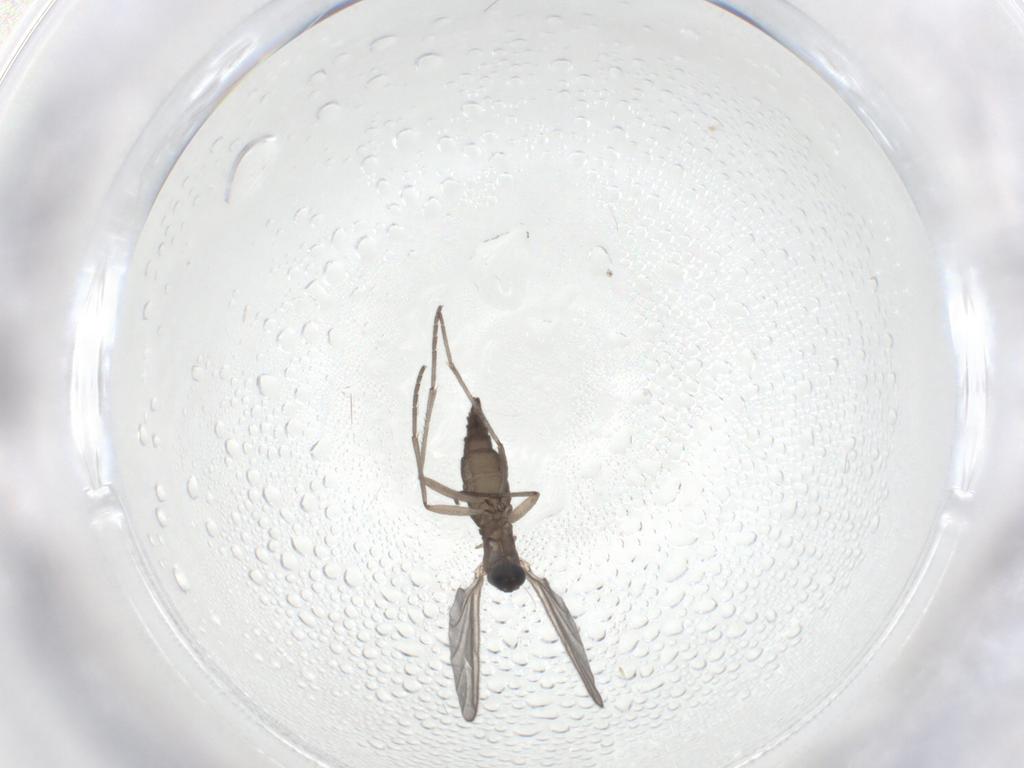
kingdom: Animalia
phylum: Arthropoda
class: Insecta
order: Diptera
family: Sciaridae
